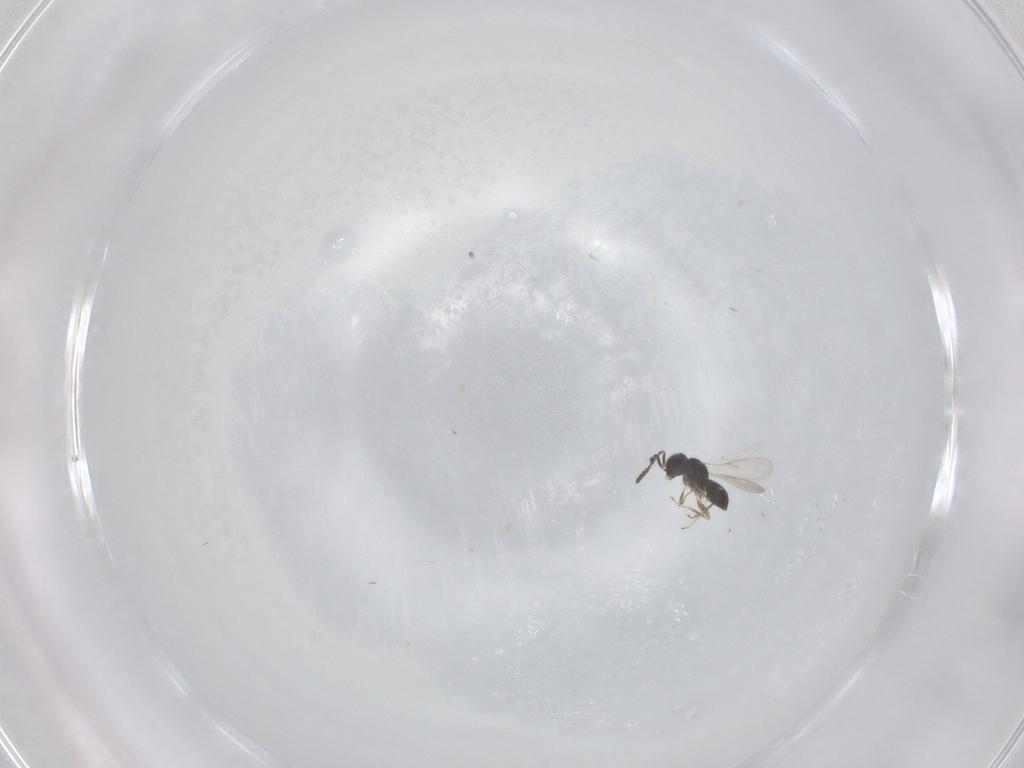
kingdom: Animalia
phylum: Arthropoda
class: Insecta
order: Hymenoptera
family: Scelionidae
